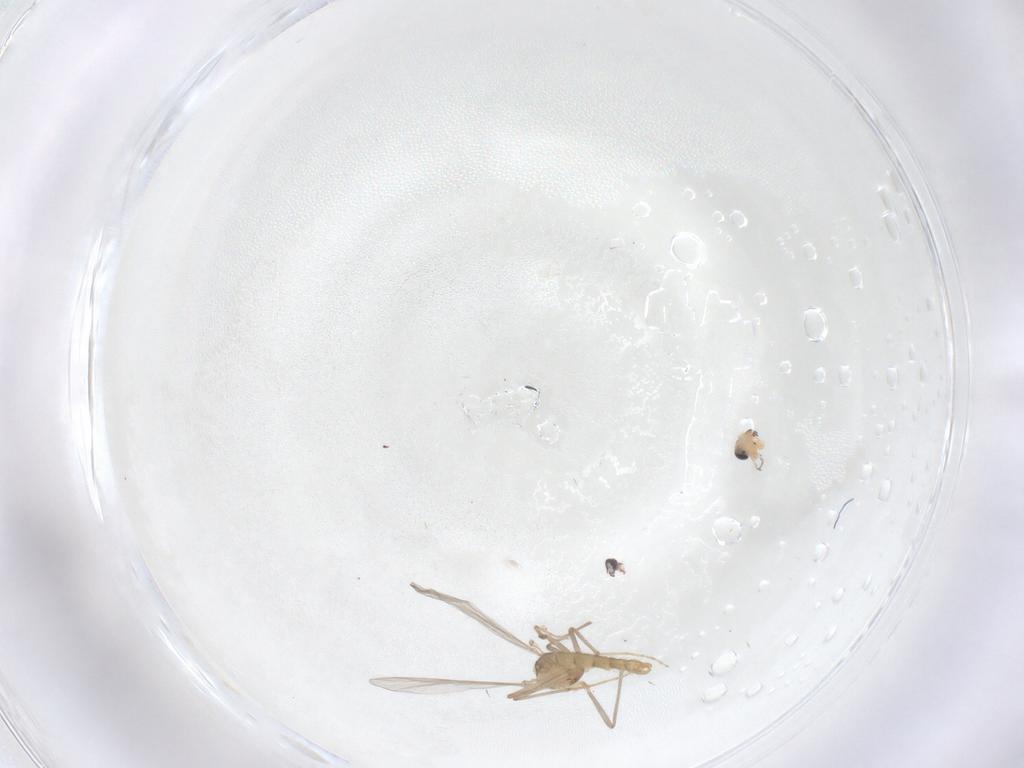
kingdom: Animalia
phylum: Arthropoda
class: Insecta
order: Diptera
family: Chironomidae
